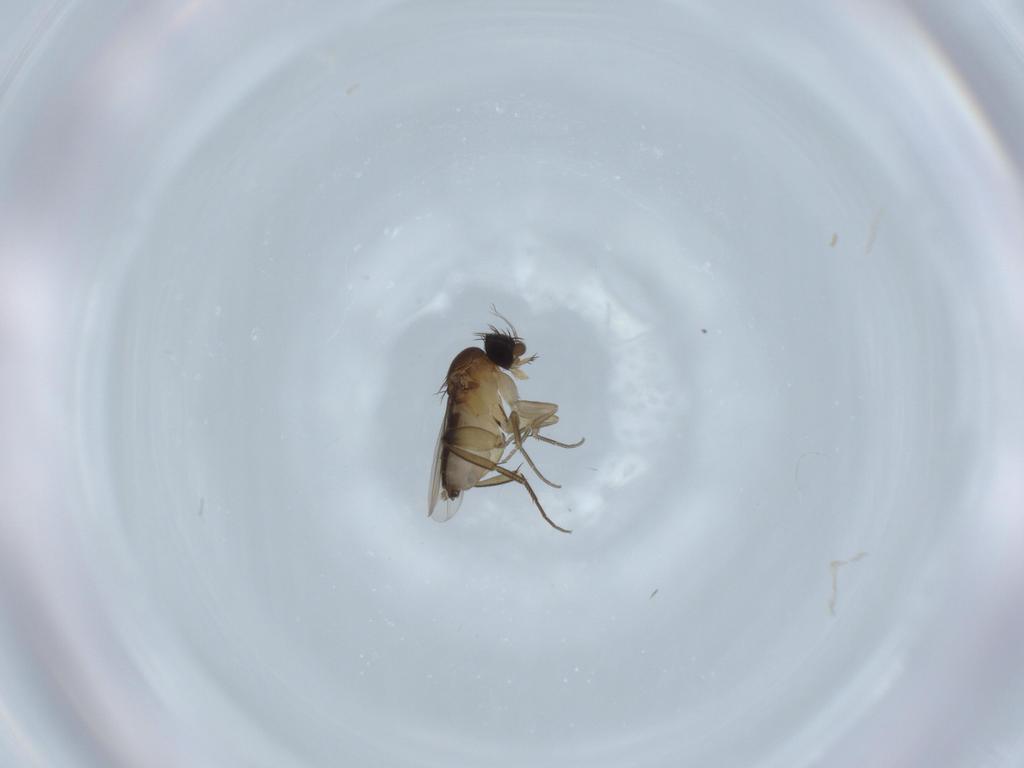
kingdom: Animalia
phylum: Arthropoda
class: Insecta
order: Diptera
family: Phoridae
